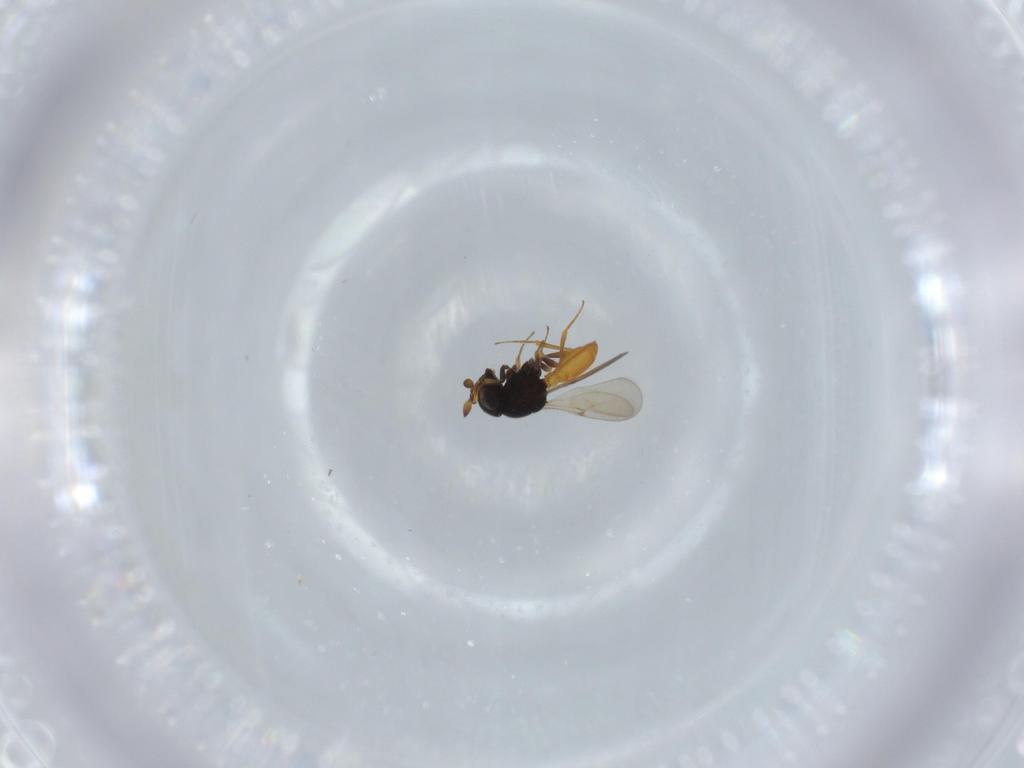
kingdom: Animalia
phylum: Arthropoda
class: Insecta
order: Hymenoptera
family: Scelionidae
